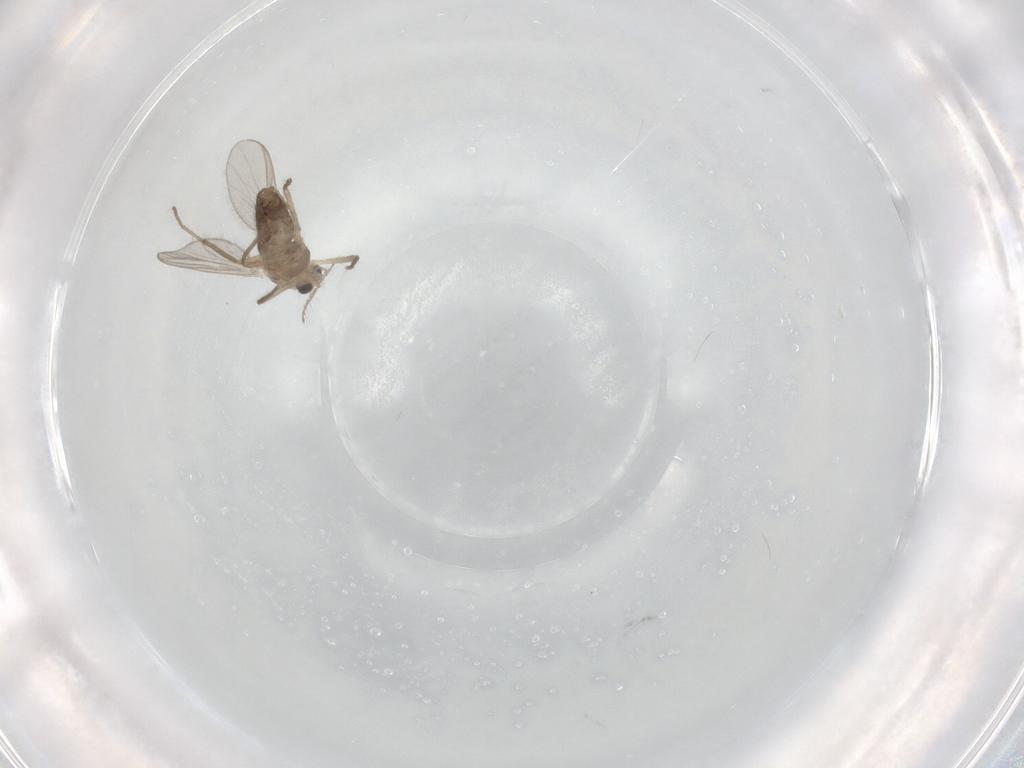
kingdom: Animalia
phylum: Arthropoda
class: Insecta
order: Diptera
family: Chironomidae
